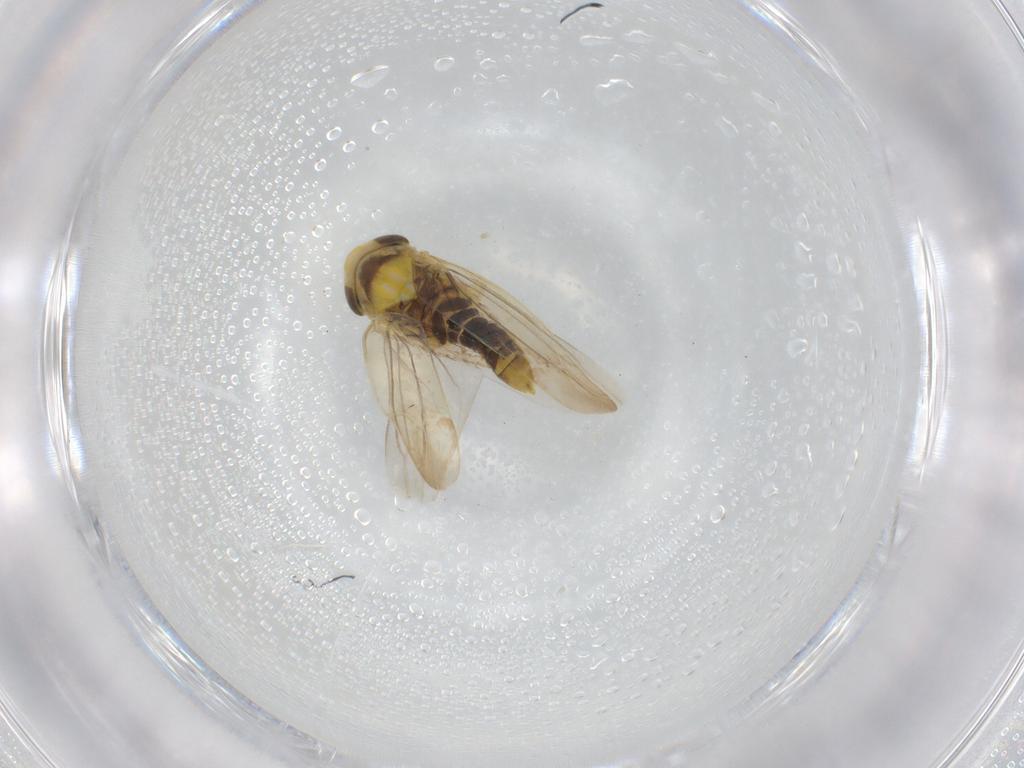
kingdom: Animalia
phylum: Arthropoda
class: Insecta
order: Hemiptera
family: Cicadellidae
